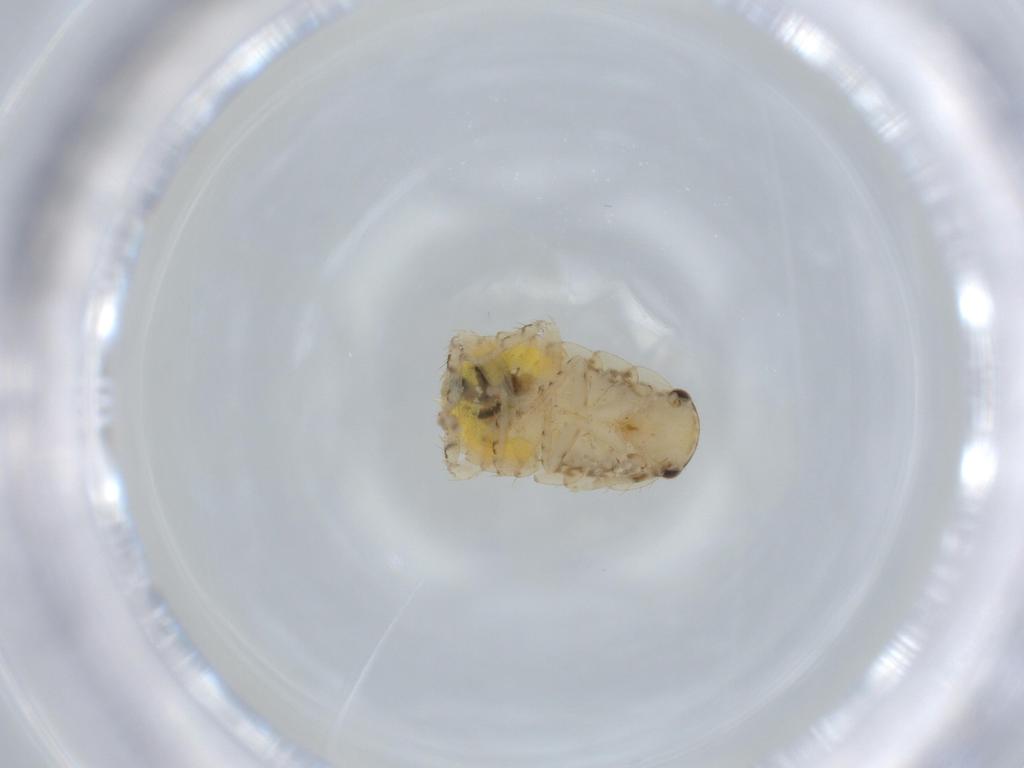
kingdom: Animalia
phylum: Arthropoda
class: Insecta
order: Blattodea
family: Ectobiidae
